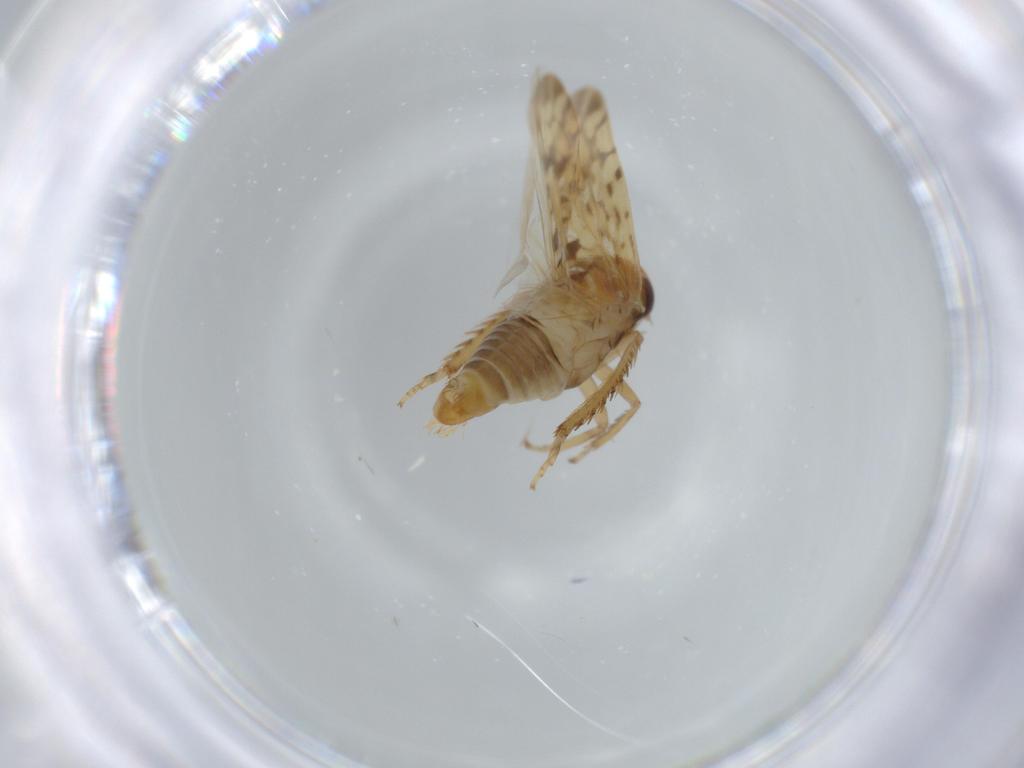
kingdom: Animalia
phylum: Arthropoda
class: Insecta
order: Hemiptera
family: Cicadellidae
